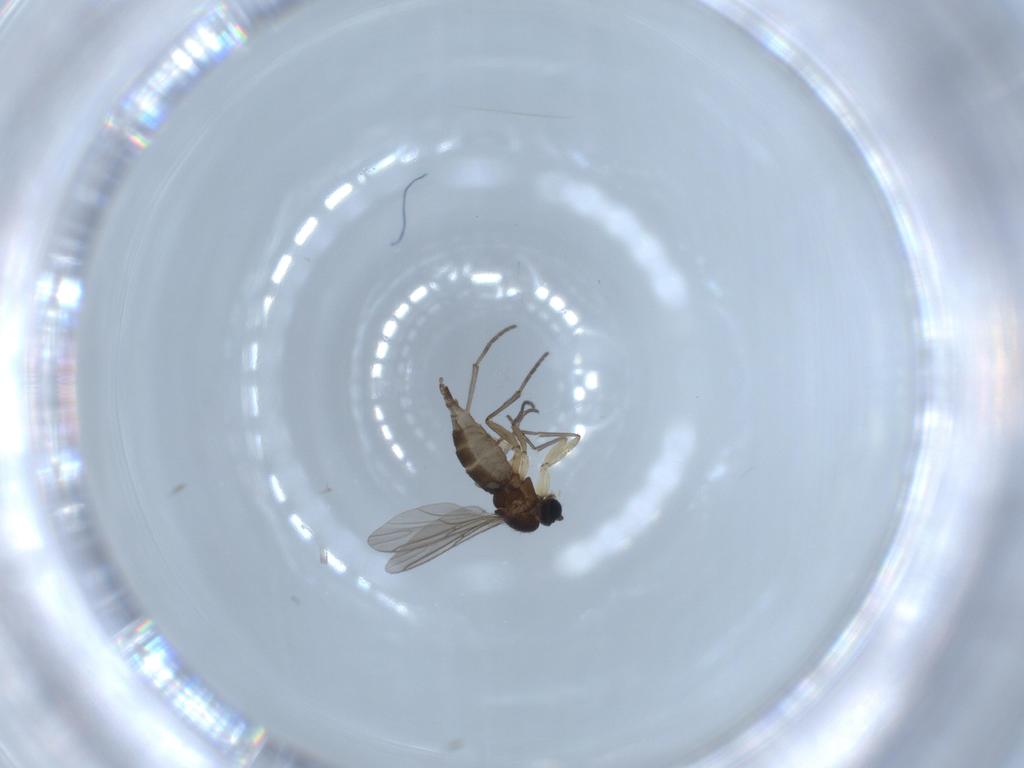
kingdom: Animalia
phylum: Arthropoda
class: Insecta
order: Diptera
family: Sciaridae
